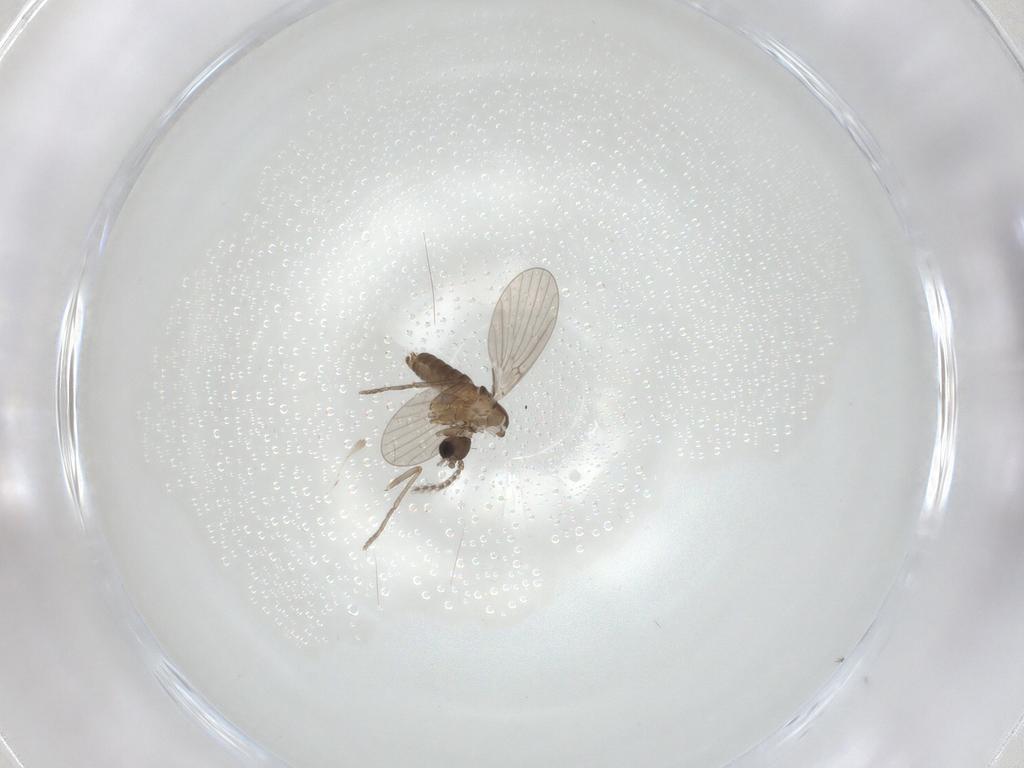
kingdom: Animalia
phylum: Arthropoda
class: Insecta
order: Diptera
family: Cecidomyiidae
